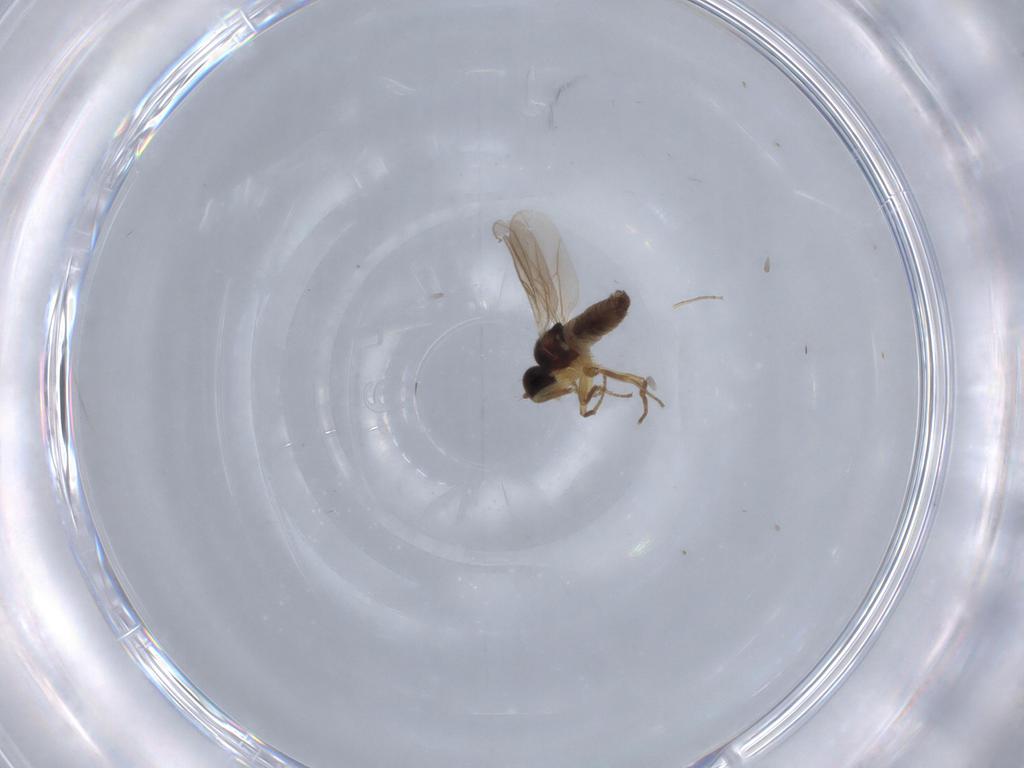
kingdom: Animalia
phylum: Arthropoda
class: Insecta
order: Diptera
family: Hybotidae
